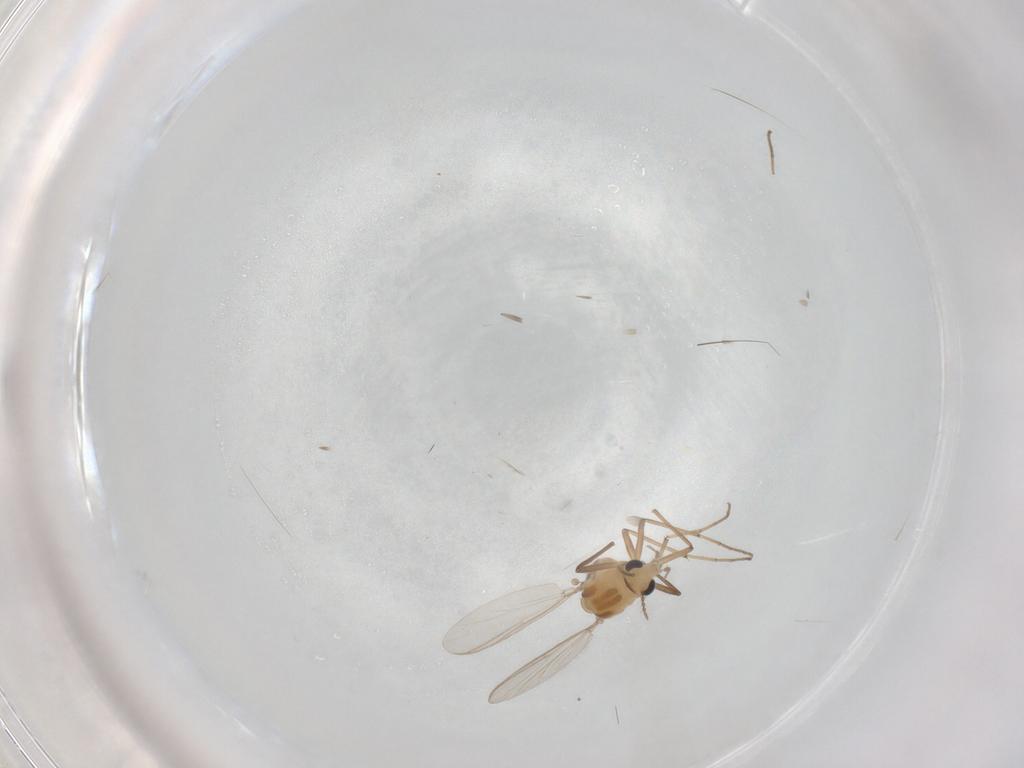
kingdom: Animalia
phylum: Arthropoda
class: Insecta
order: Diptera
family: Chironomidae
